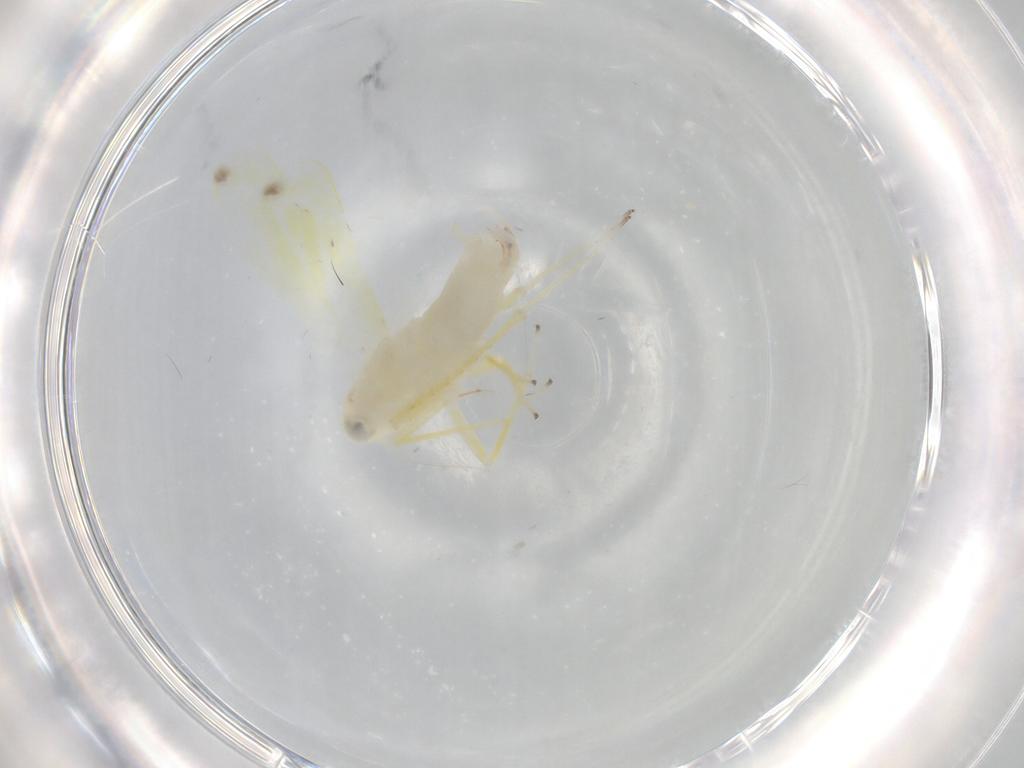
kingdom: Animalia
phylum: Arthropoda
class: Insecta
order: Hemiptera
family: Cicadellidae
